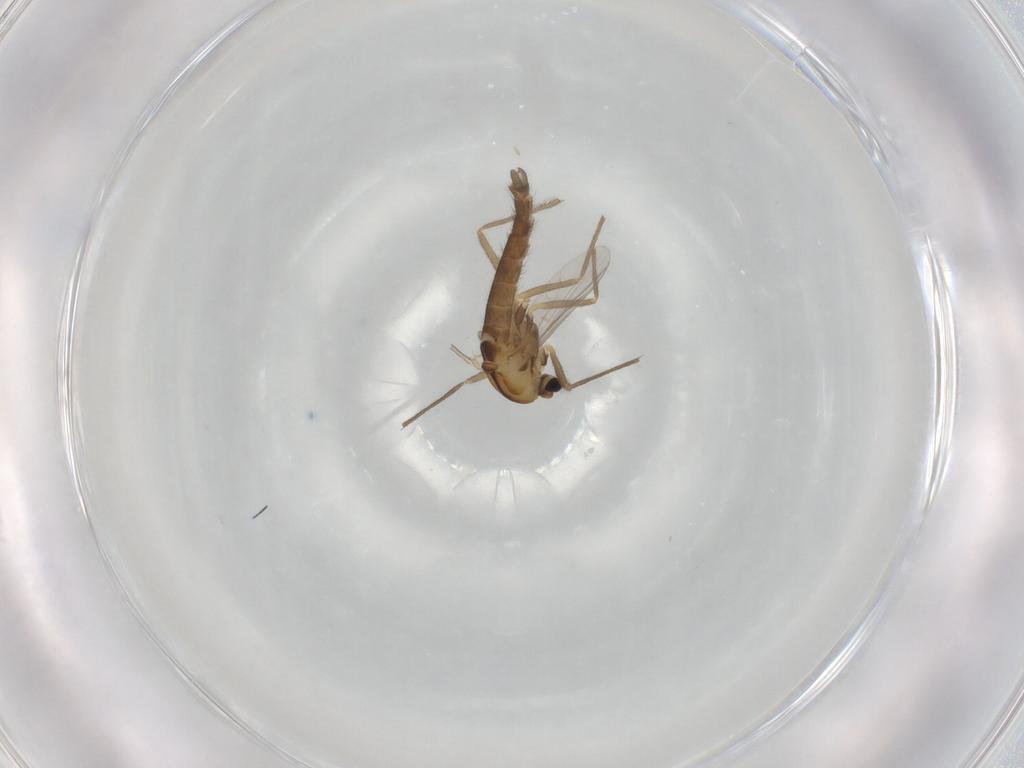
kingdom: Animalia
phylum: Arthropoda
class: Insecta
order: Diptera
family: Chironomidae
